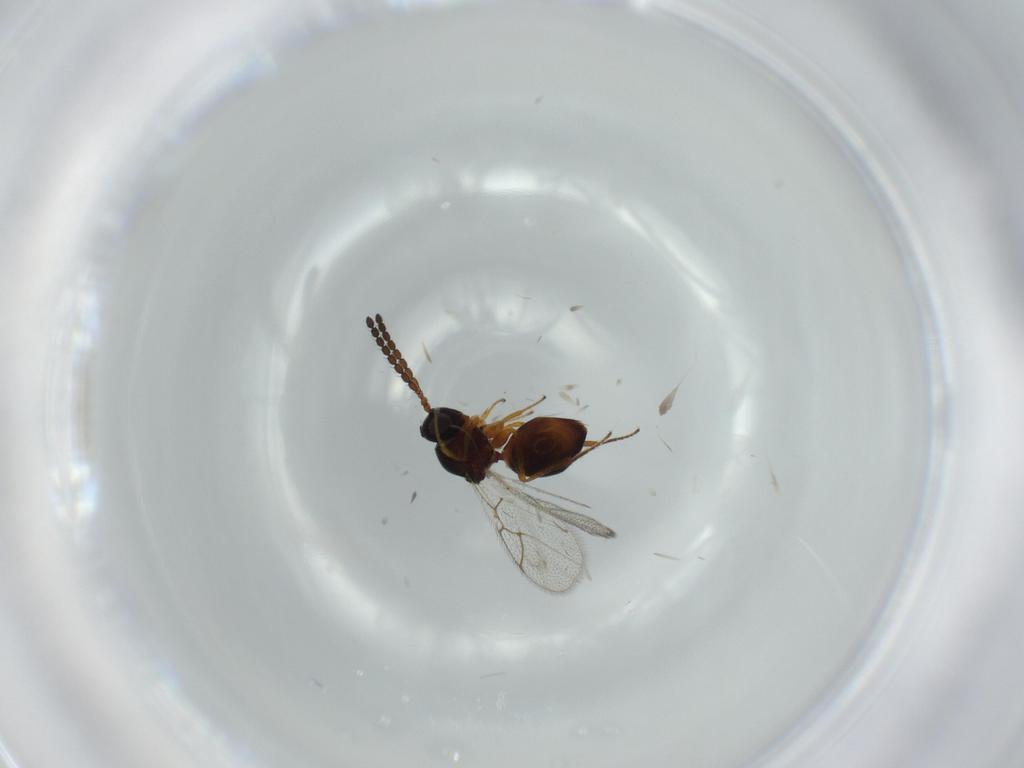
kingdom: Animalia
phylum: Arthropoda
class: Insecta
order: Hymenoptera
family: Figitidae
